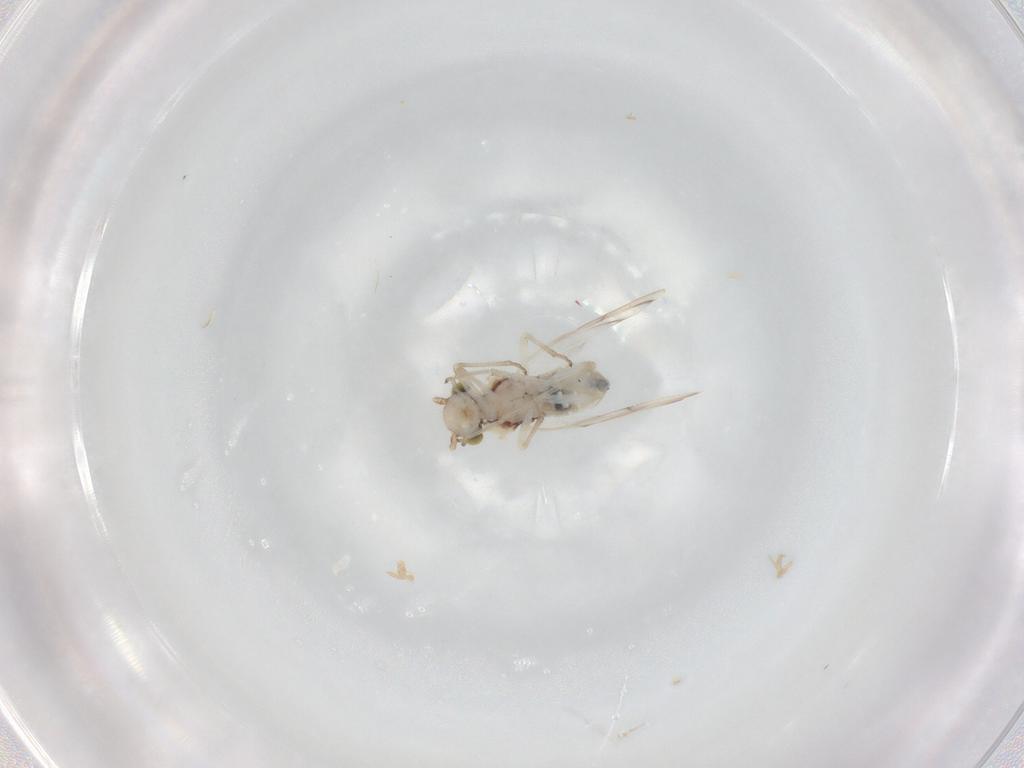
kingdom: Animalia
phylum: Arthropoda
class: Insecta
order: Psocodea
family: Trichopsocidae
